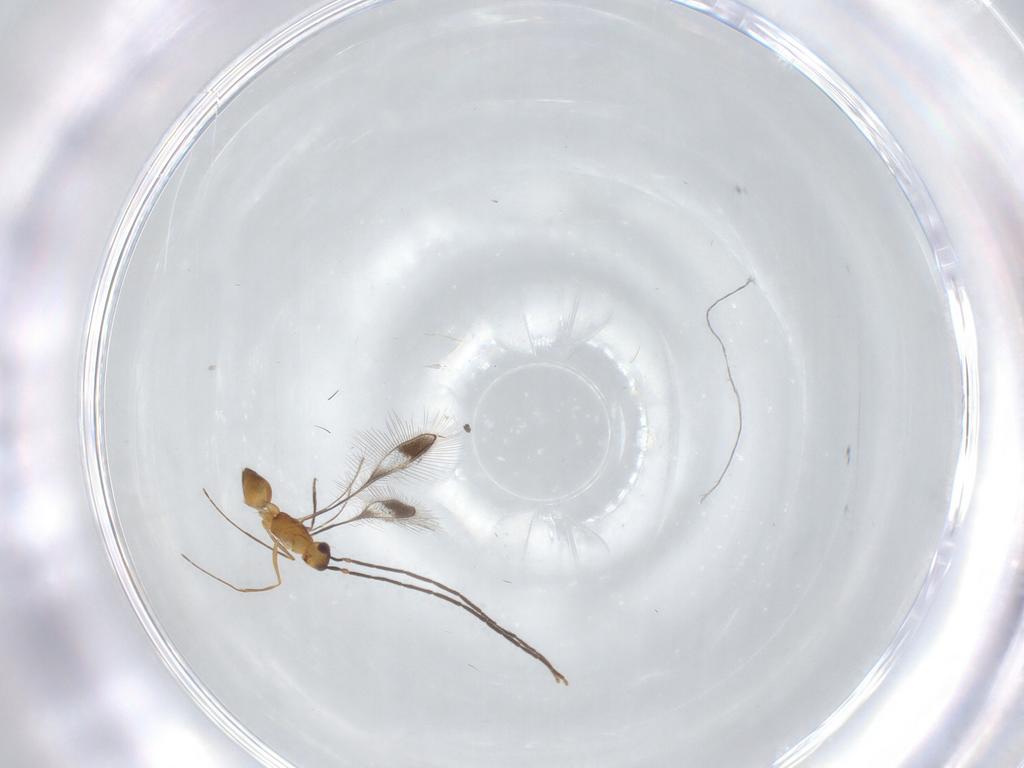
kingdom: Animalia
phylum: Arthropoda
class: Insecta
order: Hymenoptera
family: Mymaridae
